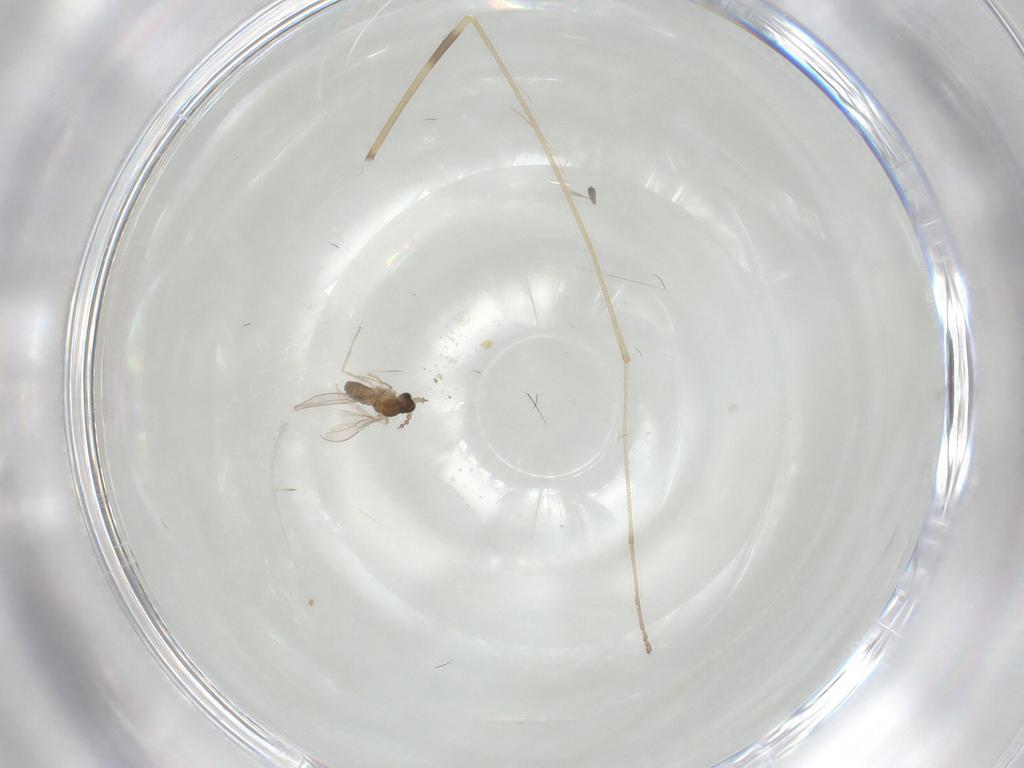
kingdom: Animalia
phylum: Arthropoda
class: Insecta
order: Diptera
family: Limoniidae
